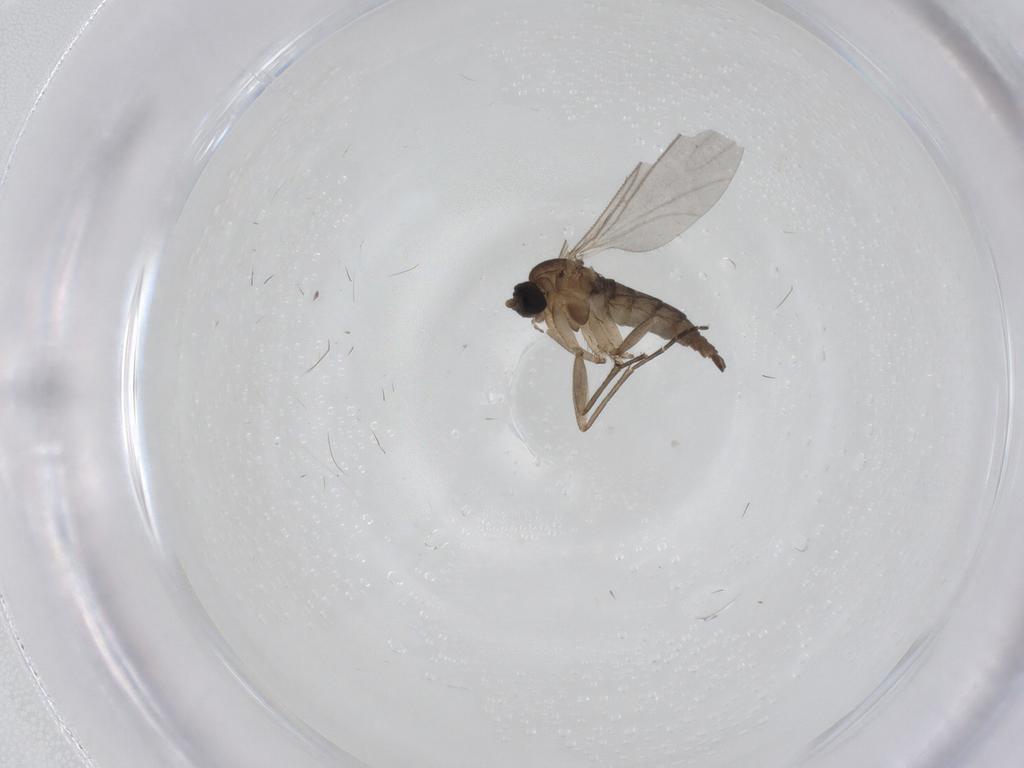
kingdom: Animalia
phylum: Arthropoda
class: Insecta
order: Diptera
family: Sciaridae
